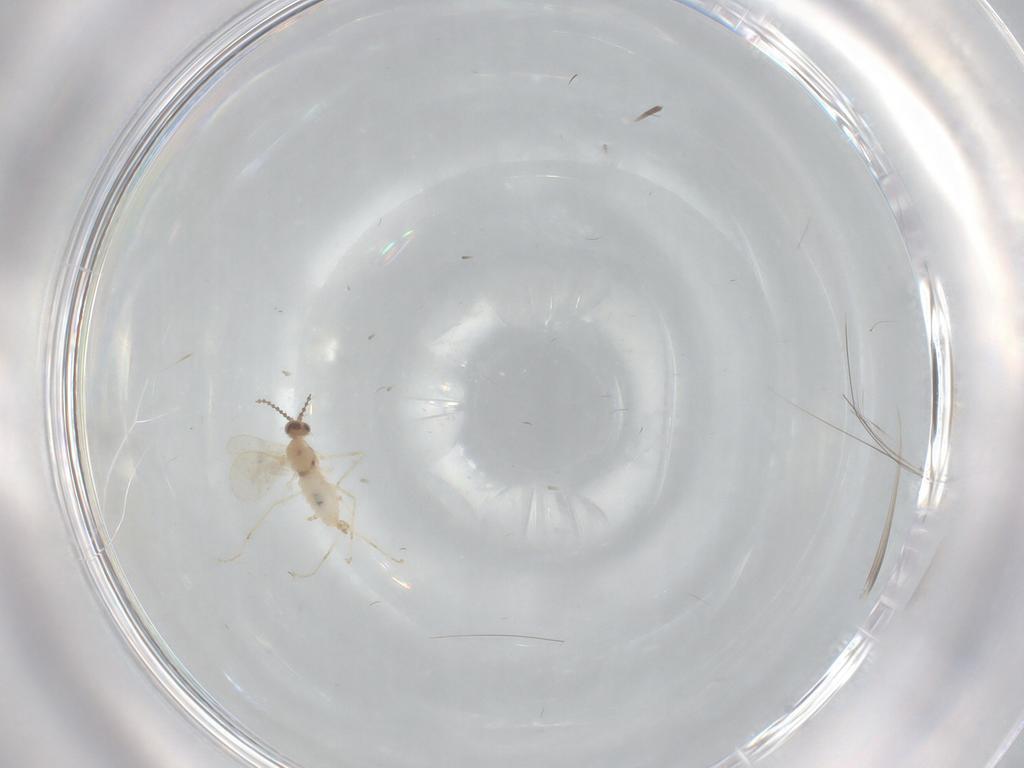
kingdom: Animalia
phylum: Arthropoda
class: Insecta
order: Diptera
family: Cecidomyiidae
